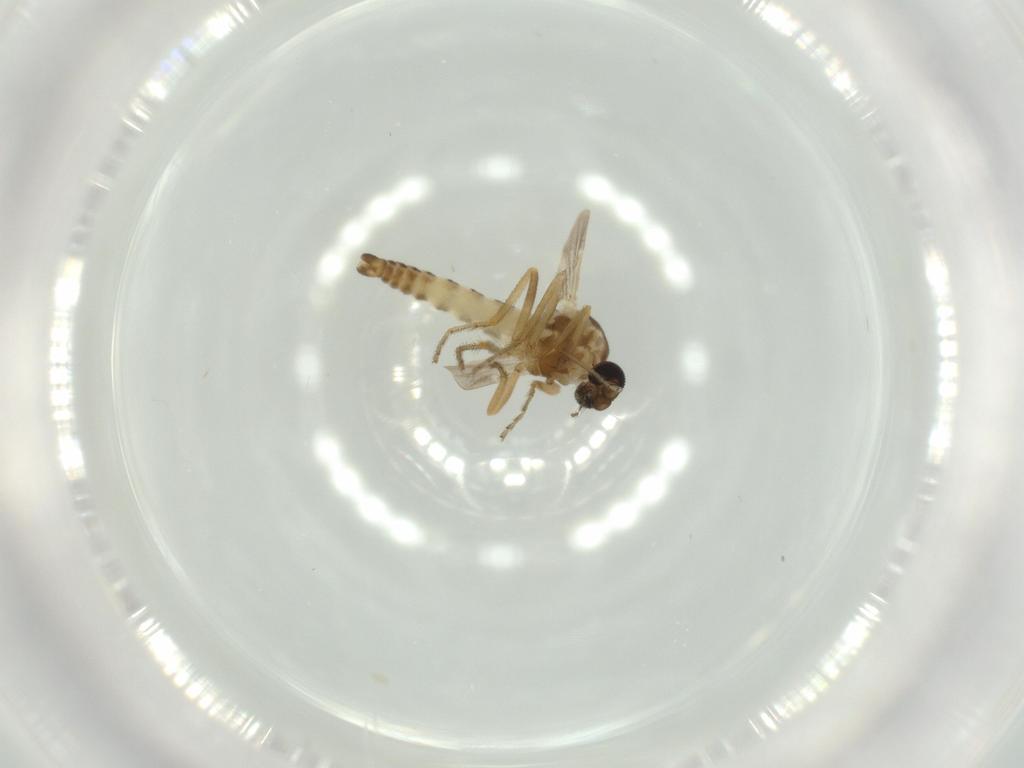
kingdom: Animalia
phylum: Arthropoda
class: Insecta
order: Diptera
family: Ceratopogonidae
